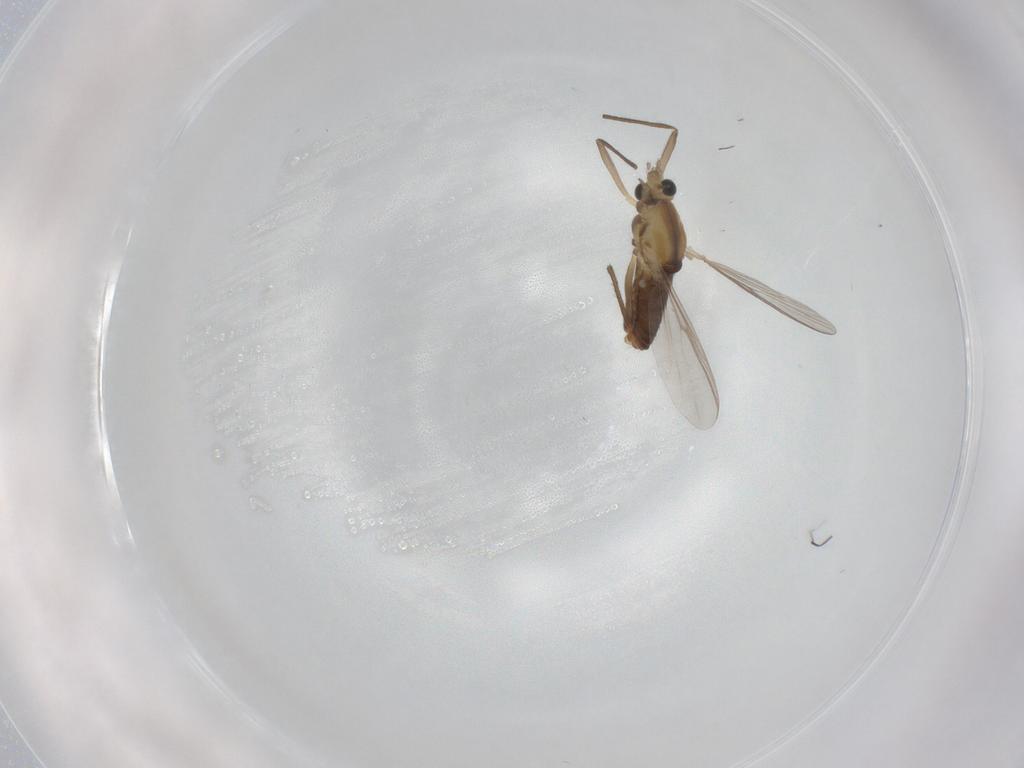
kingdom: Animalia
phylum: Arthropoda
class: Insecta
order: Diptera
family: Chironomidae
